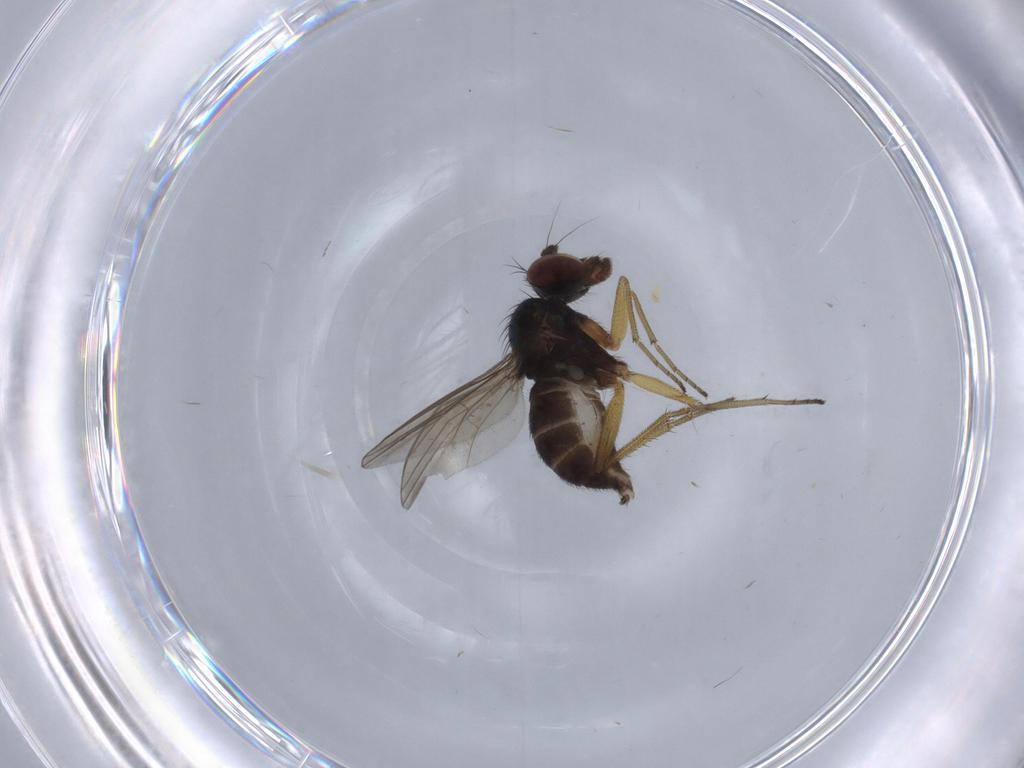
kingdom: Animalia
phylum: Arthropoda
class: Insecta
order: Diptera
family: Dolichopodidae
